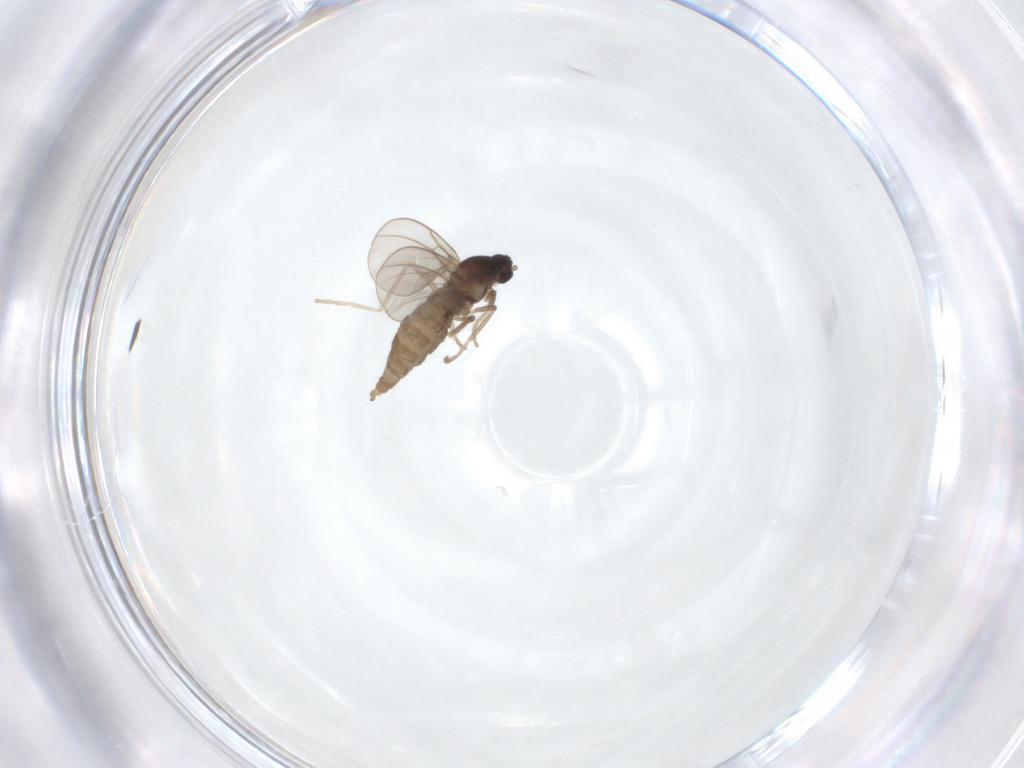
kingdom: Animalia
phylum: Arthropoda
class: Insecta
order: Diptera
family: Cecidomyiidae
